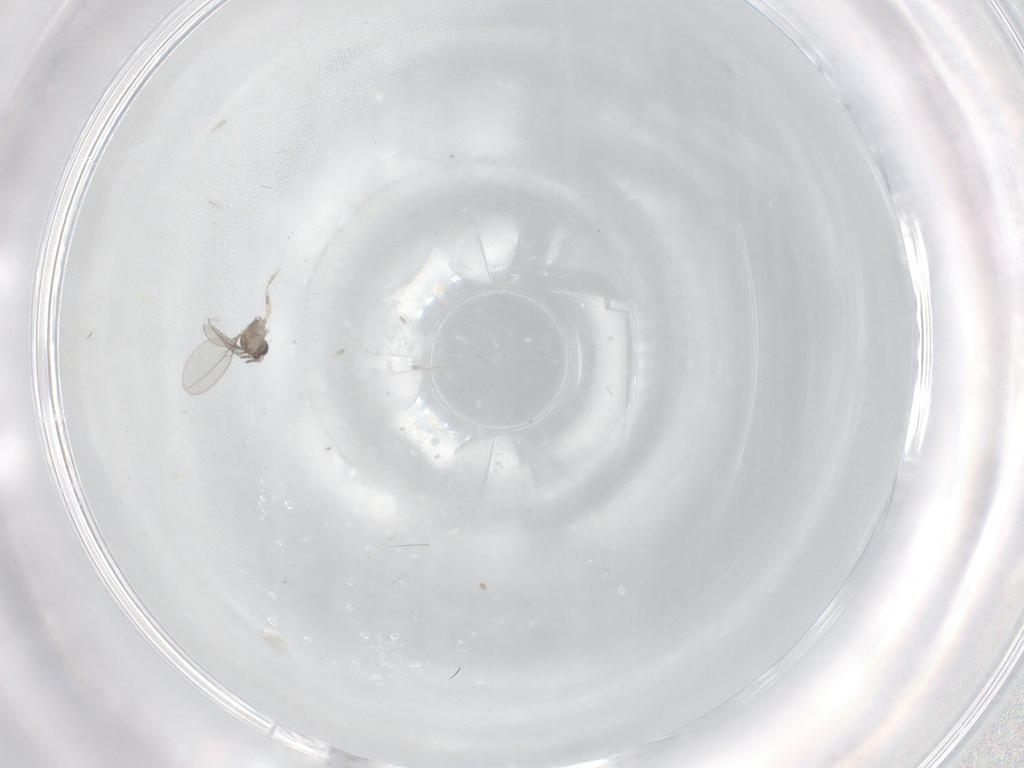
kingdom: Animalia
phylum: Arthropoda
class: Insecta
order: Diptera
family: Cecidomyiidae
